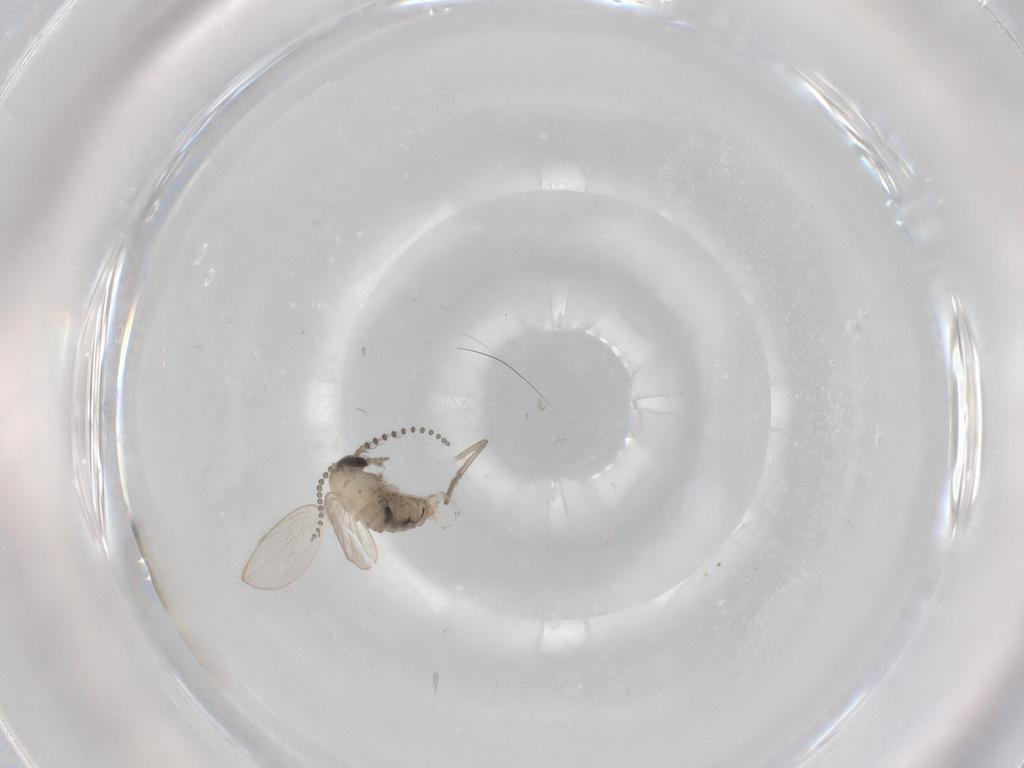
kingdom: Animalia
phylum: Arthropoda
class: Insecta
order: Diptera
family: Psychodidae
